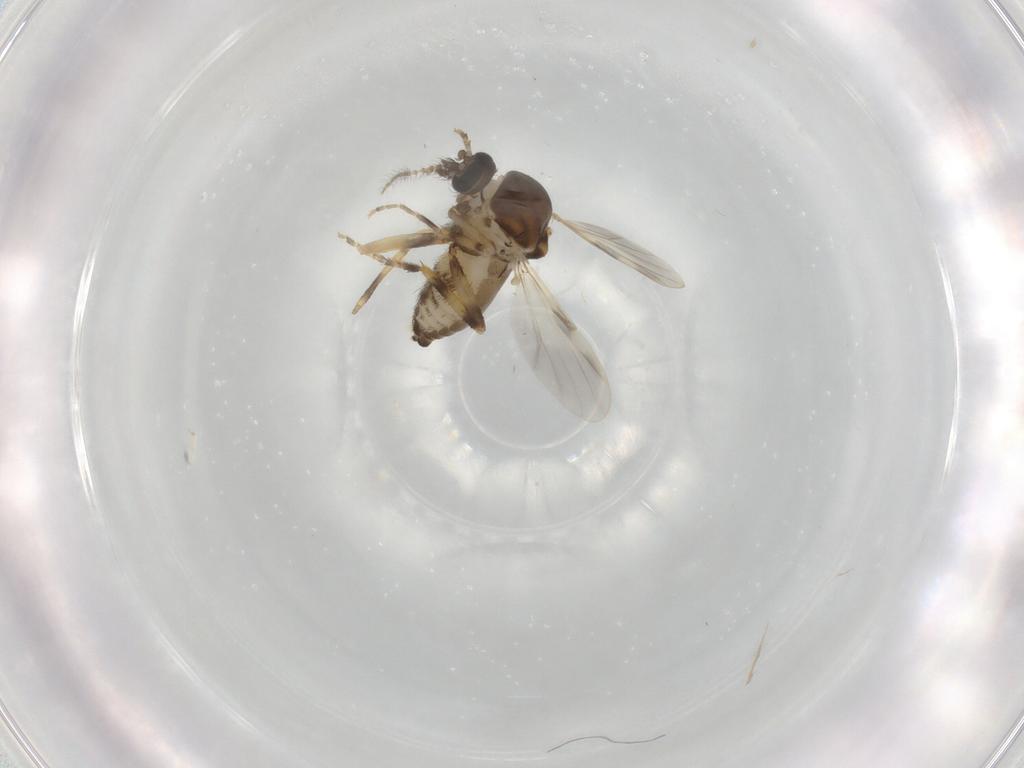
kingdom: Animalia
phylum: Arthropoda
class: Insecta
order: Diptera
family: Ceratopogonidae
